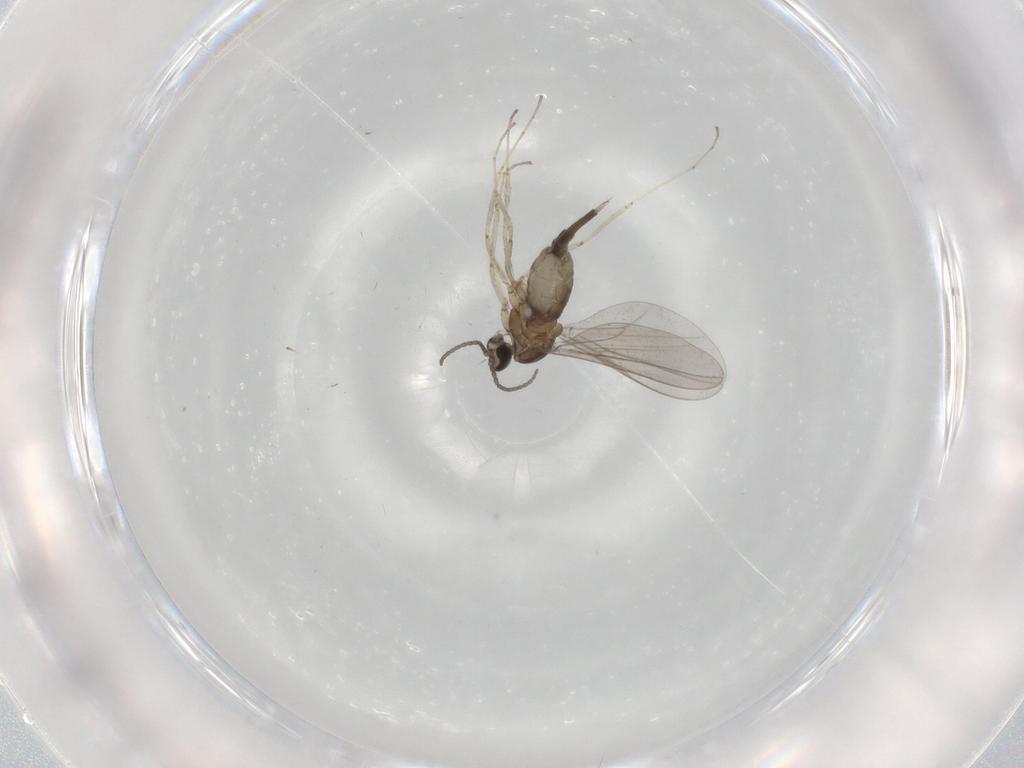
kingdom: Animalia
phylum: Arthropoda
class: Insecta
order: Diptera
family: Cecidomyiidae
